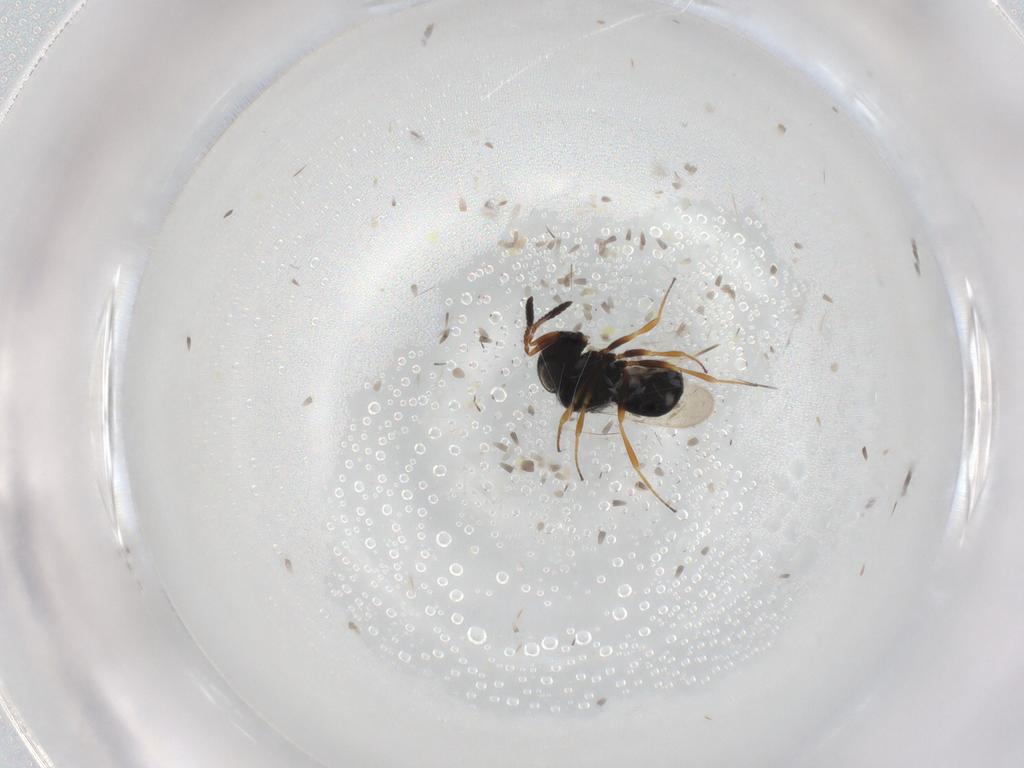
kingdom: Animalia
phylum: Arthropoda
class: Insecta
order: Hymenoptera
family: Scelionidae
